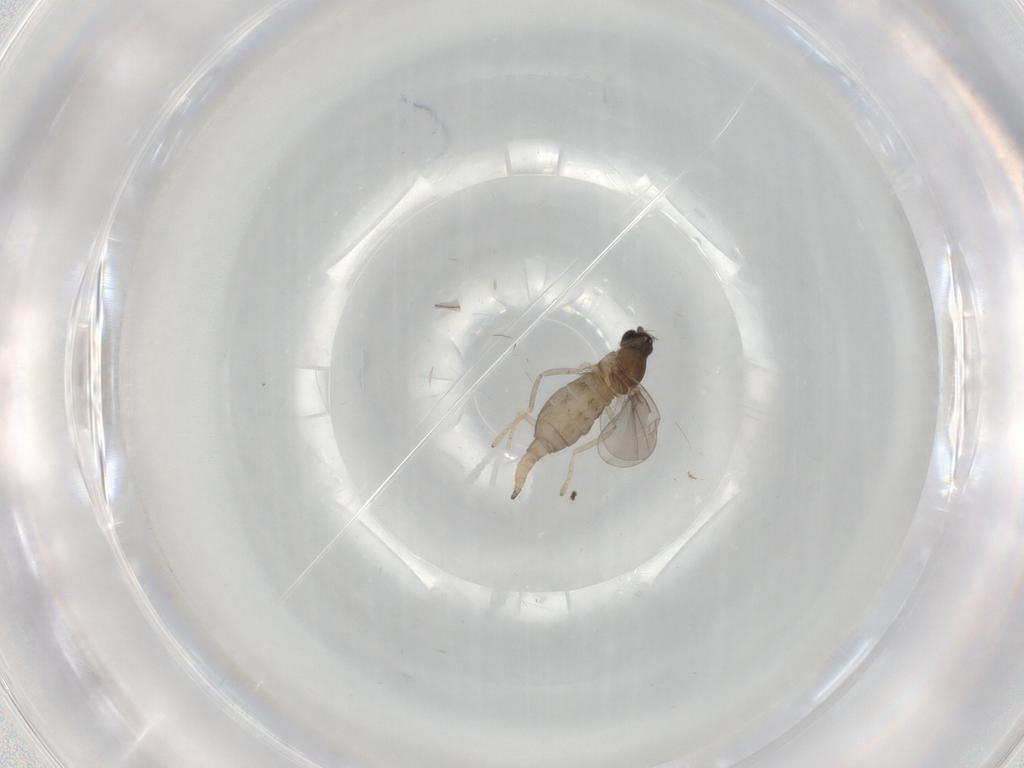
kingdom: Animalia
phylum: Arthropoda
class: Insecta
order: Diptera
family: Cecidomyiidae
